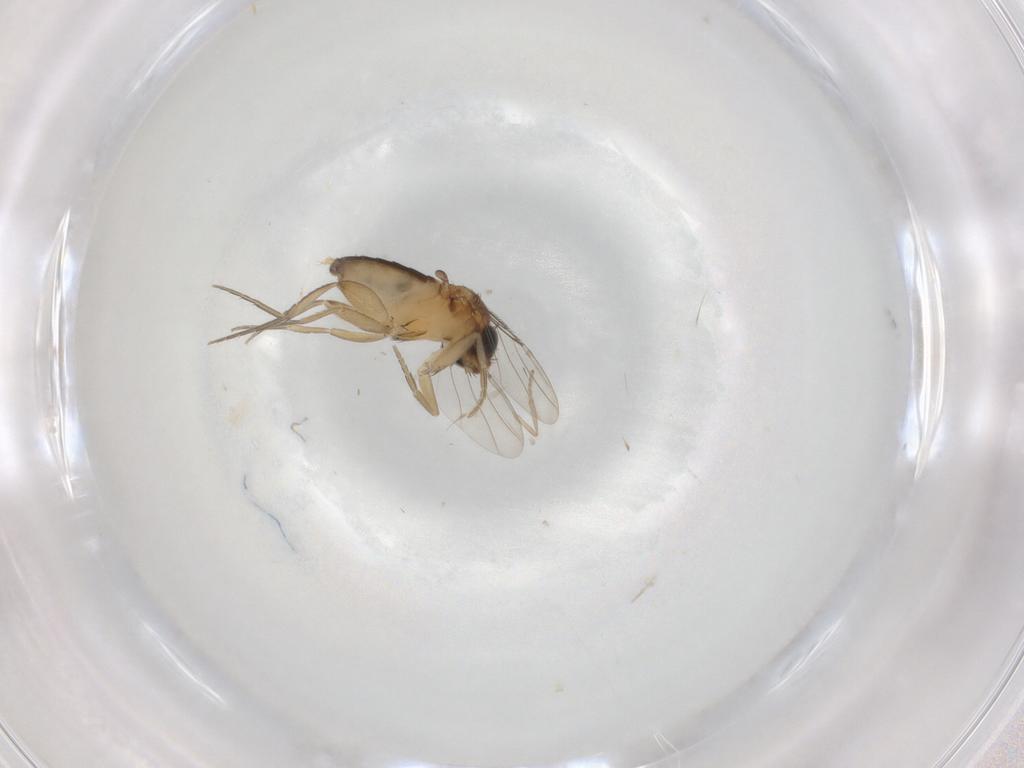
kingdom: Animalia
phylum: Arthropoda
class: Insecta
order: Diptera
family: Phoridae
